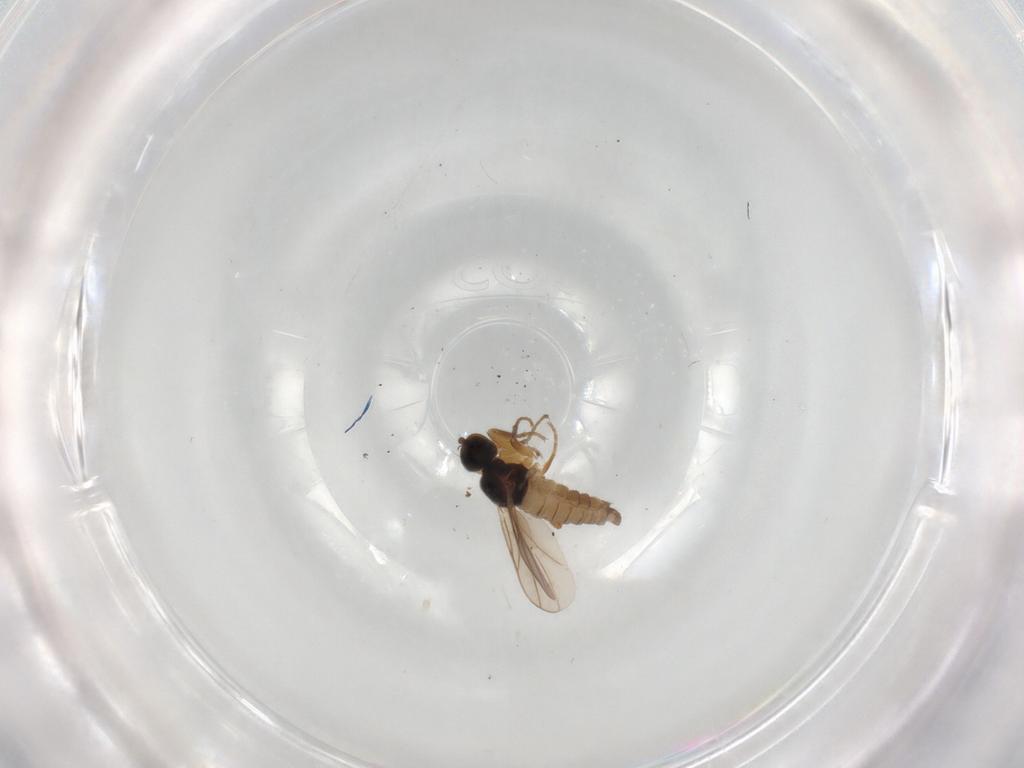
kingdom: Animalia
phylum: Arthropoda
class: Insecta
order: Diptera
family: Hybotidae
